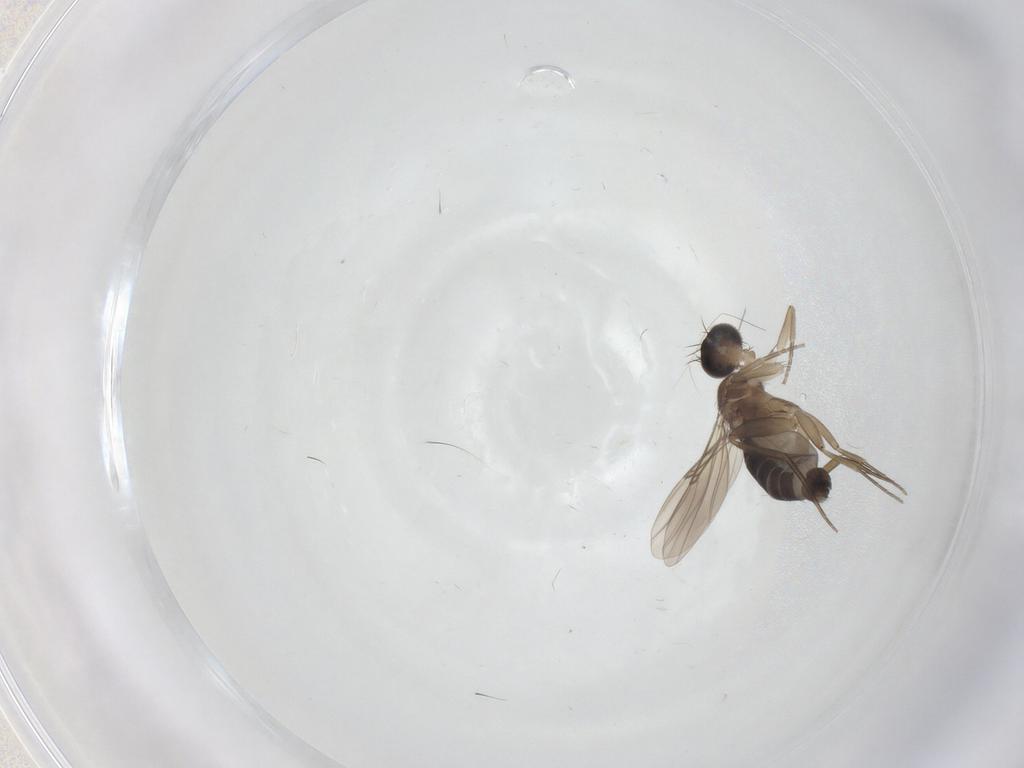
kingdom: Animalia
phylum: Arthropoda
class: Insecta
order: Diptera
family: Phoridae
